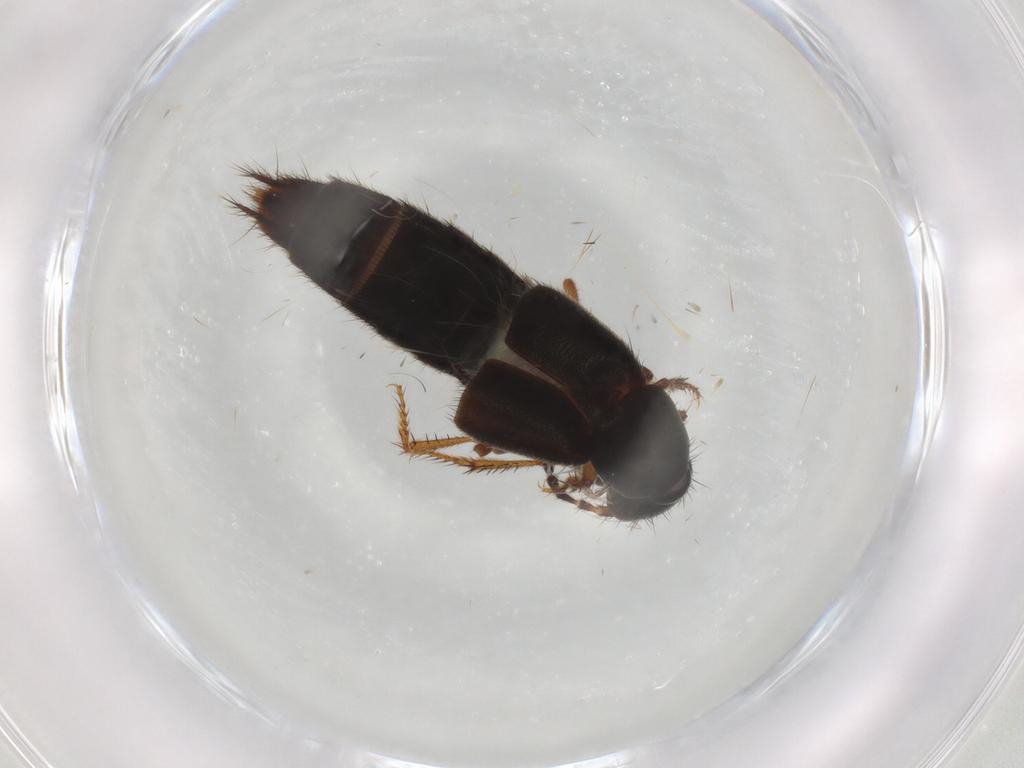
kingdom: Animalia
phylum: Arthropoda
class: Insecta
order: Coleoptera
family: Staphylinidae
